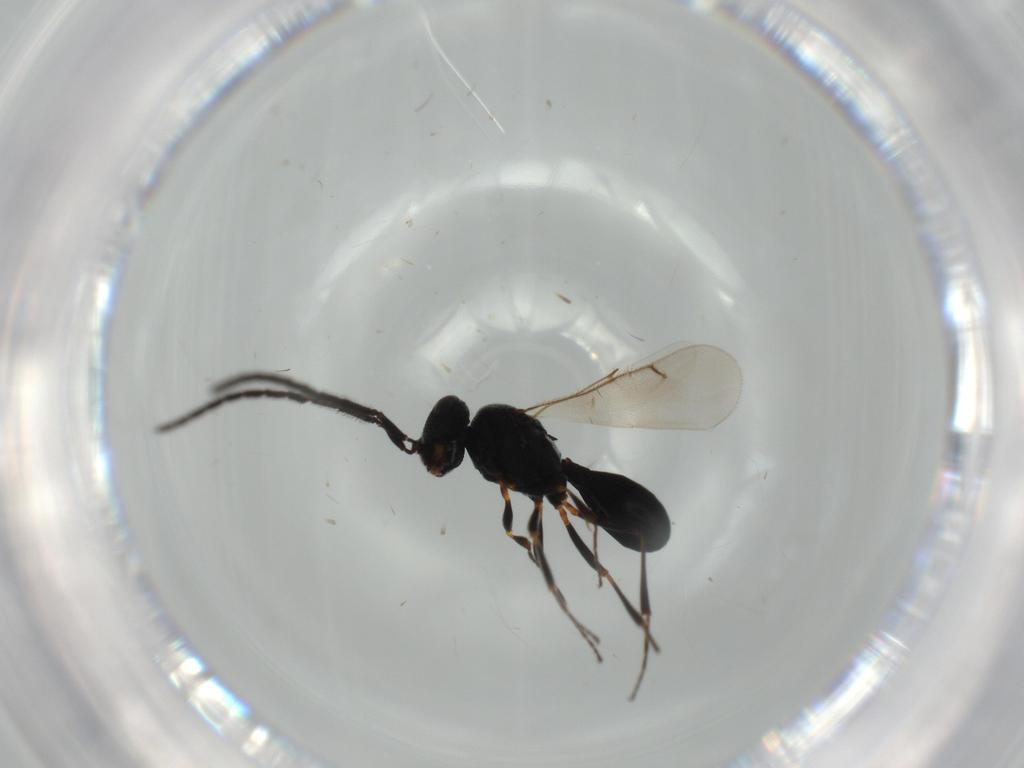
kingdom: Animalia
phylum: Arthropoda
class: Insecta
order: Hymenoptera
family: Scelionidae
